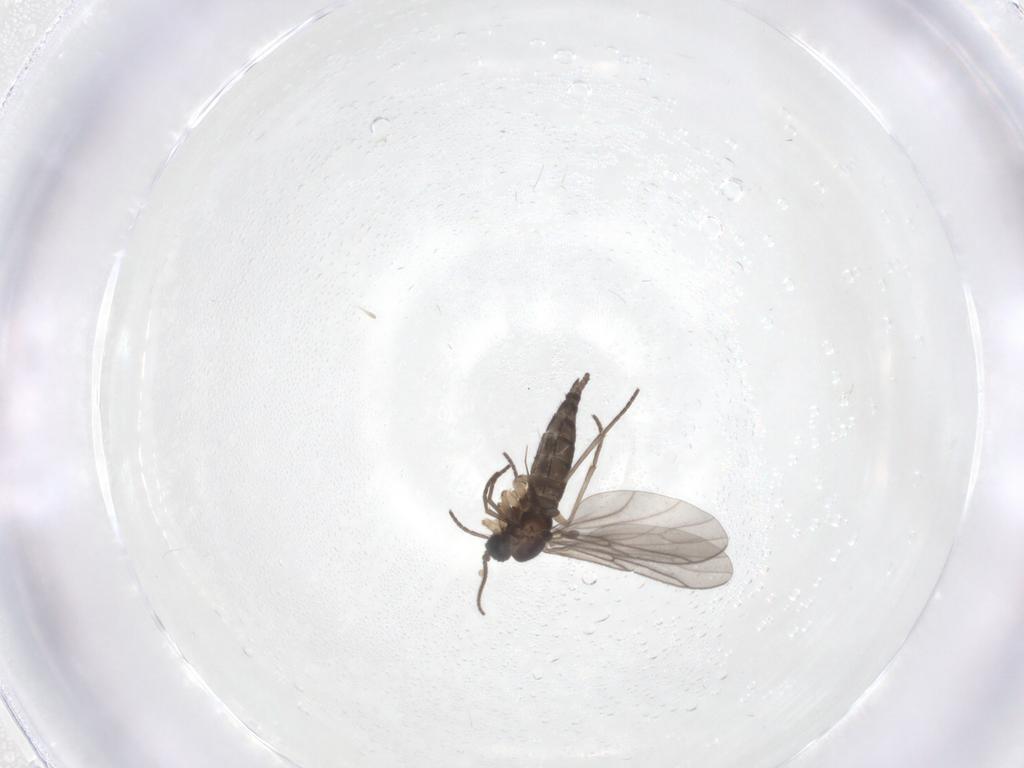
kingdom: Animalia
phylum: Arthropoda
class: Insecta
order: Diptera
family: Sciaridae
